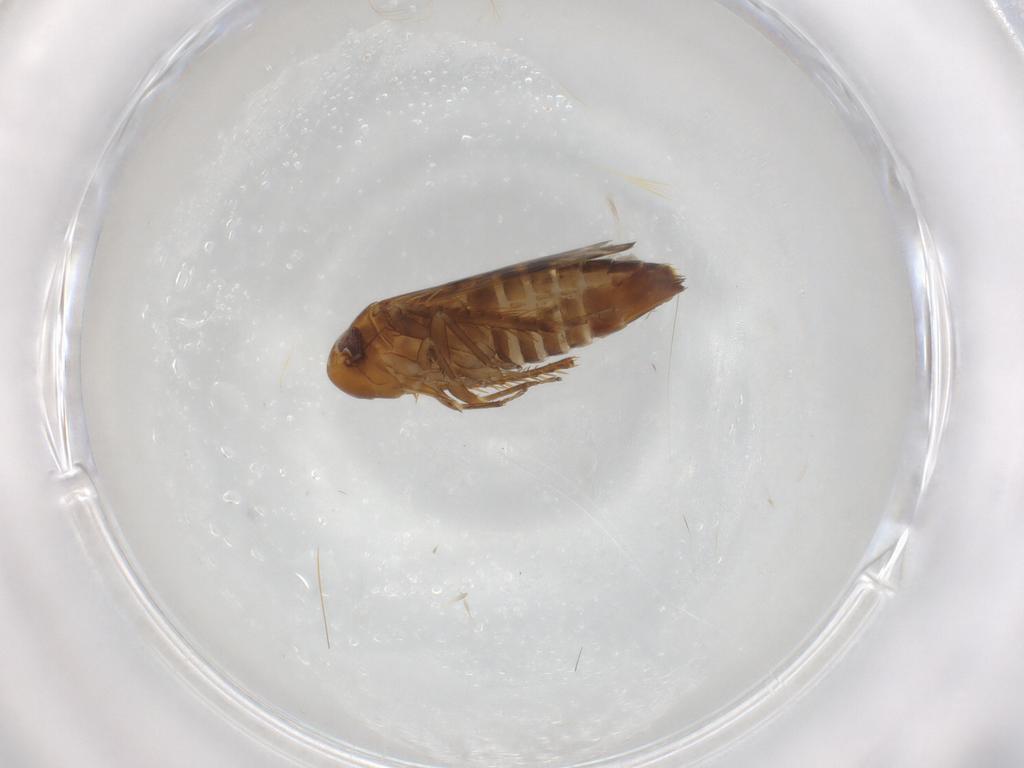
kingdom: Animalia
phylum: Arthropoda
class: Insecta
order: Hemiptera
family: Cicadellidae
